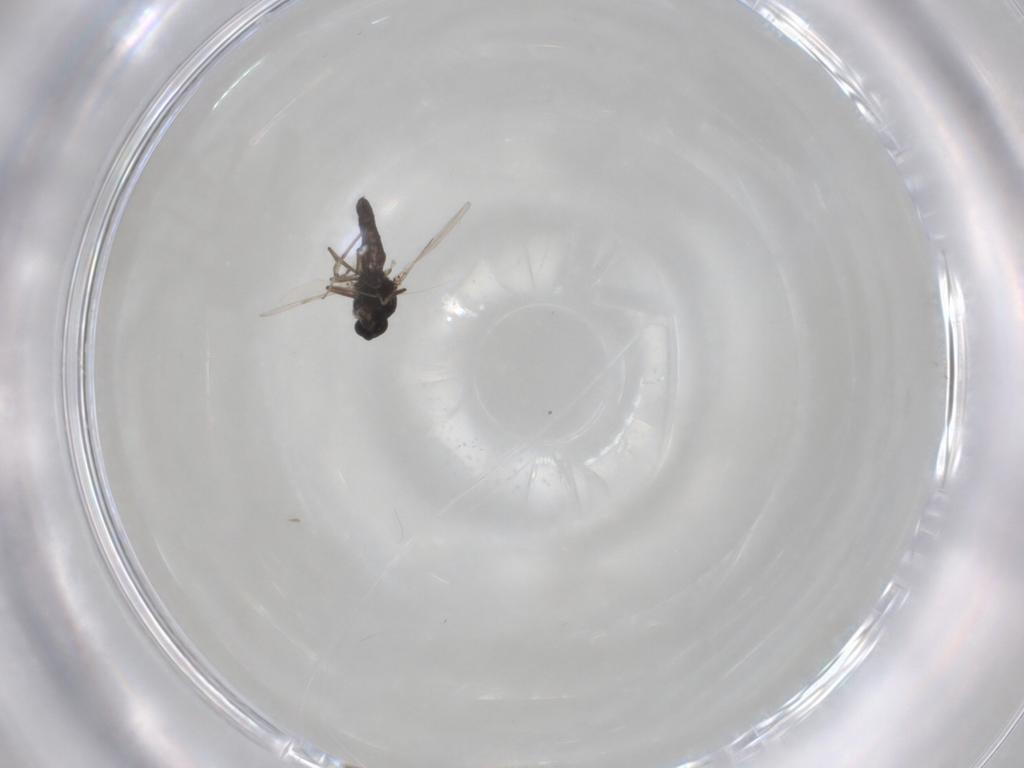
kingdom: Animalia
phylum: Arthropoda
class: Insecta
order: Diptera
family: Ceratopogonidae
